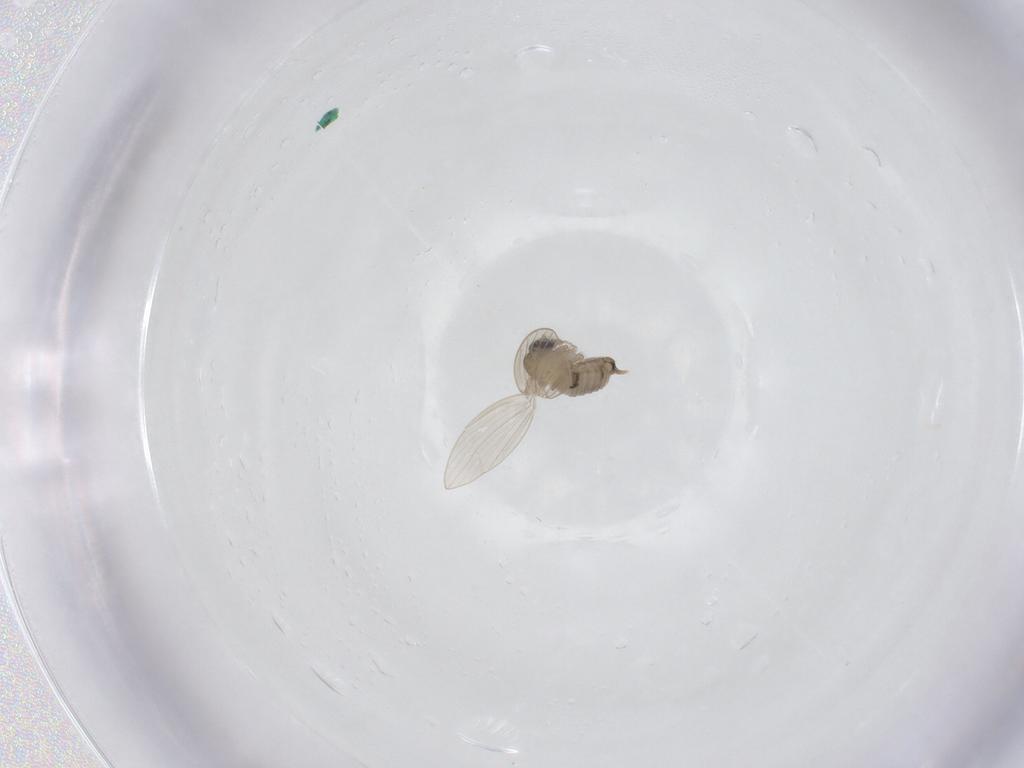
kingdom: Animalia
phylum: Arthropoda
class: Insecta
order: Diptera
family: Psychodidae
